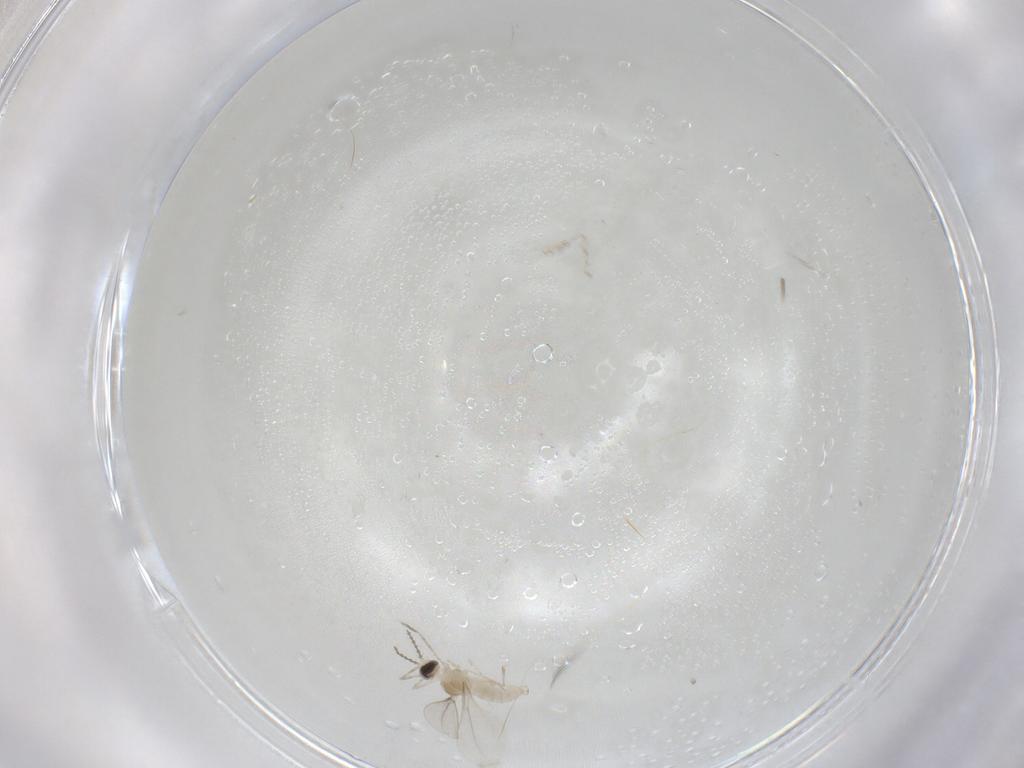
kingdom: Animalia
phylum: Arthropoda
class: Insecta
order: Diptera
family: Cecidomyiidae
